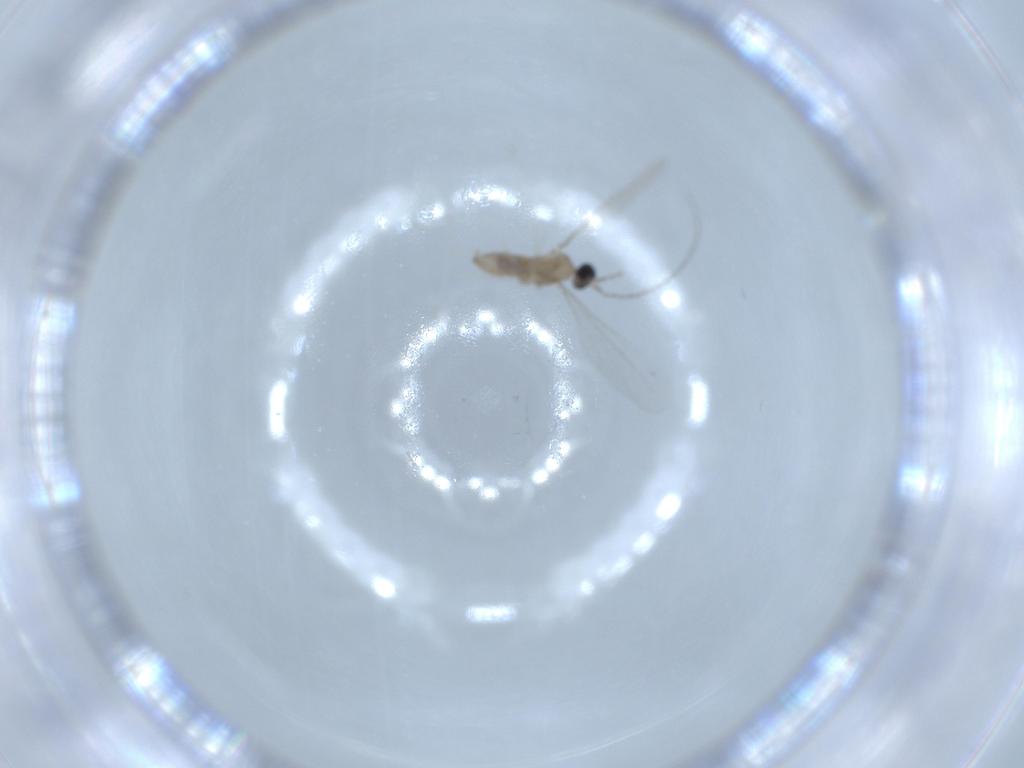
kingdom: Animalia
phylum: Arthropoda
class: Insecta
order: Diptera
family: Cecidomyiidae
